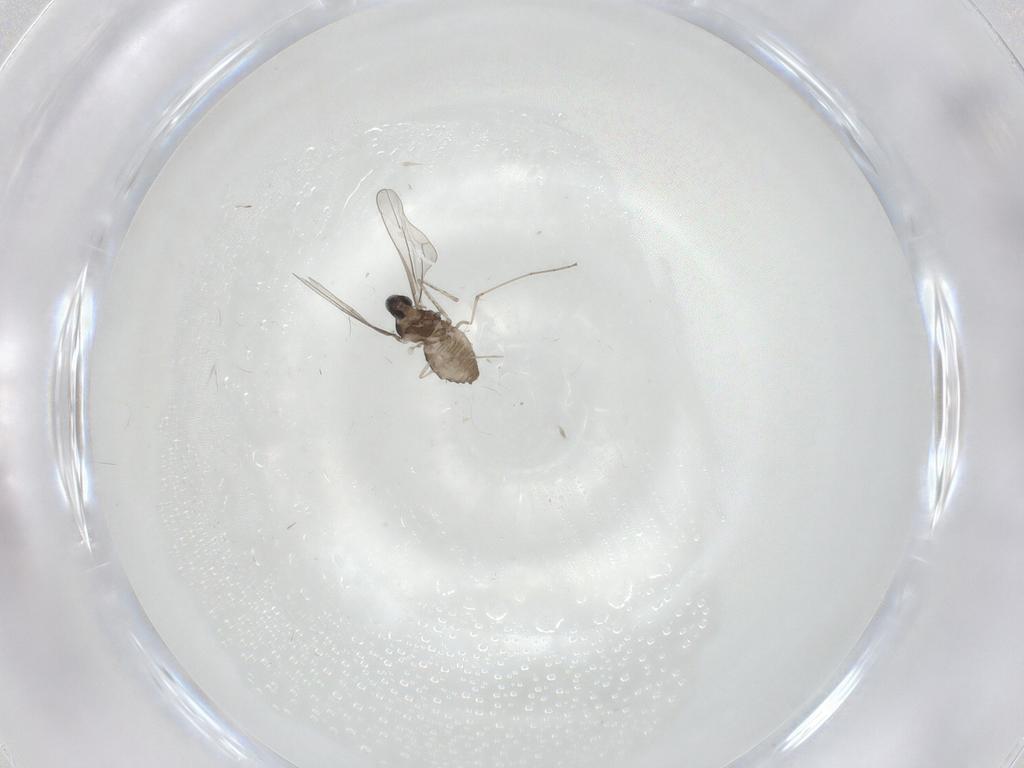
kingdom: Animalia
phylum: Arthropoda
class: Insecta
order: Diptera
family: Cecidomyiidae
